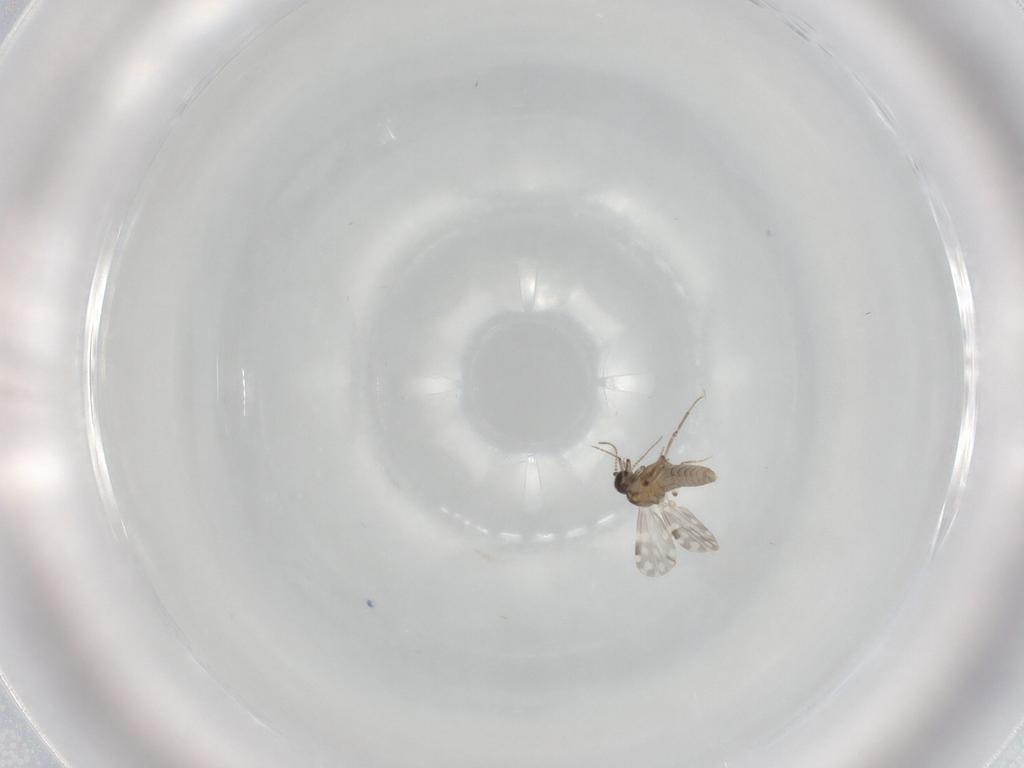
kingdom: Animalia
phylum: Arthropoda
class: Insecta
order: Diptera
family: Ceratopogonidae
